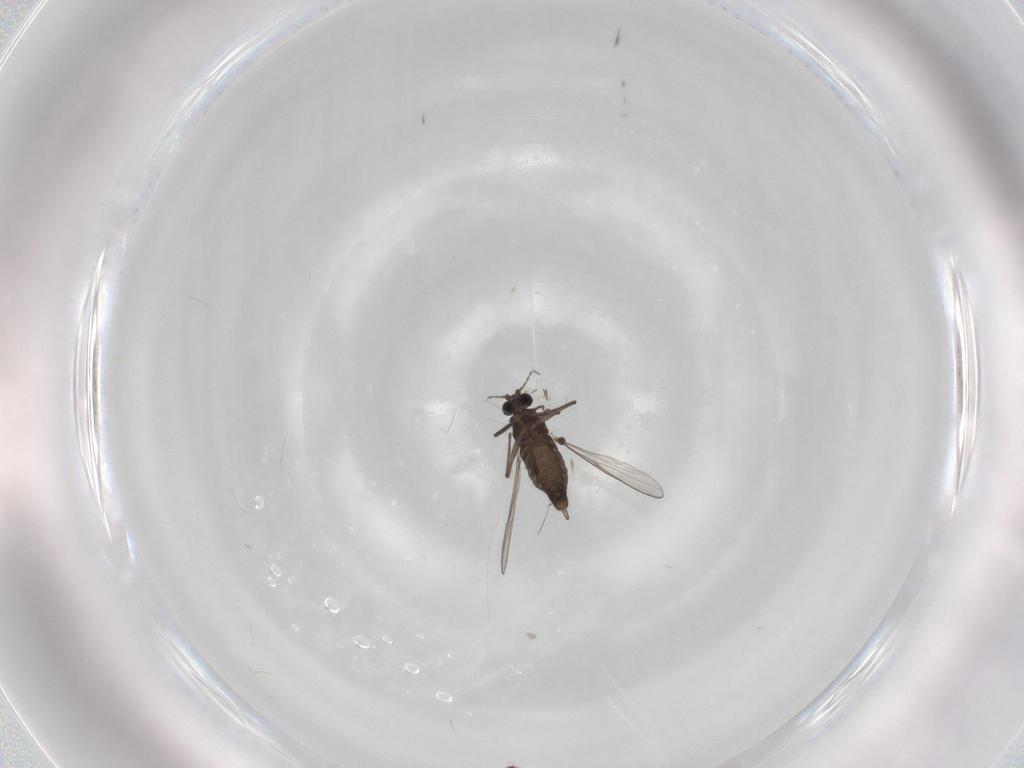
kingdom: Animalia
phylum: Arthropoda
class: Insecta
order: Diptera
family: Chironomidae
